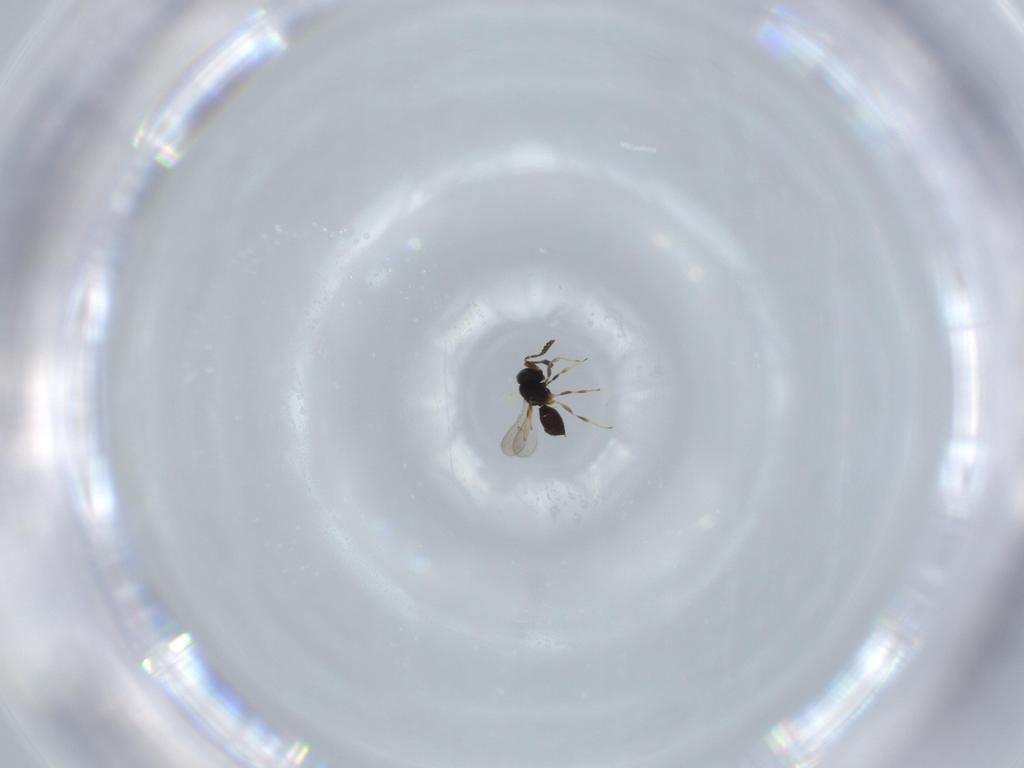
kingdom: Animalia
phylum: Arthropoda
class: Insecta
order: Hymenoptera
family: Scelionidae
